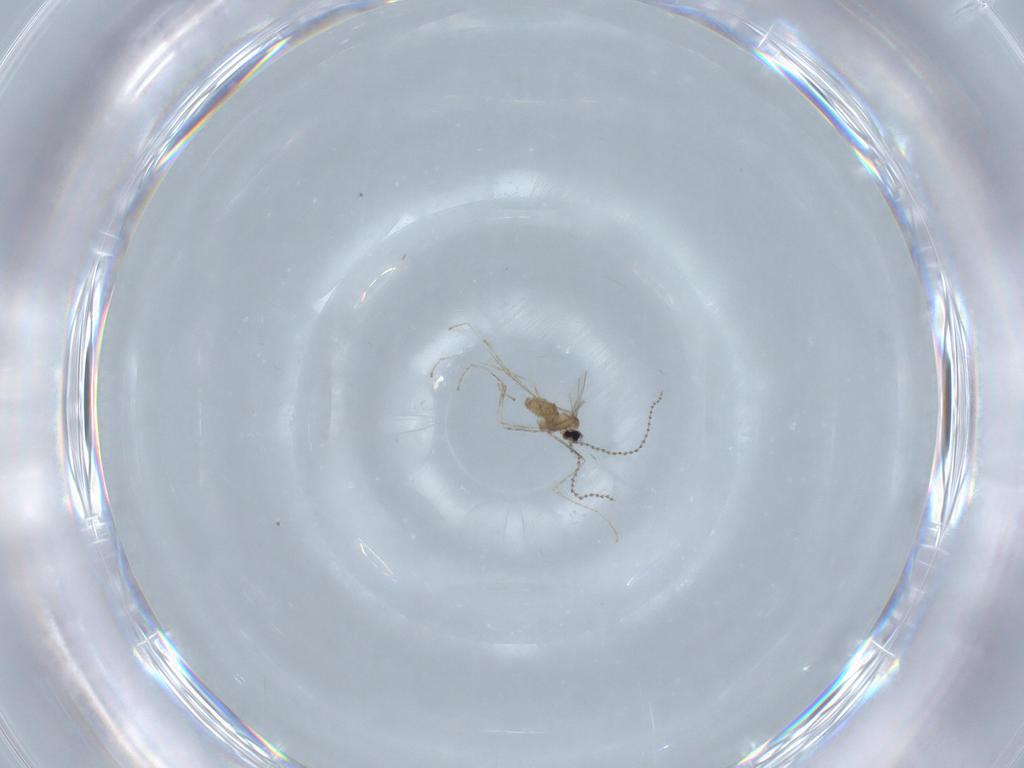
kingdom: Animalia
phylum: Arthropoda
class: Insecta
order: Diptera
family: Cecidomyiidae
